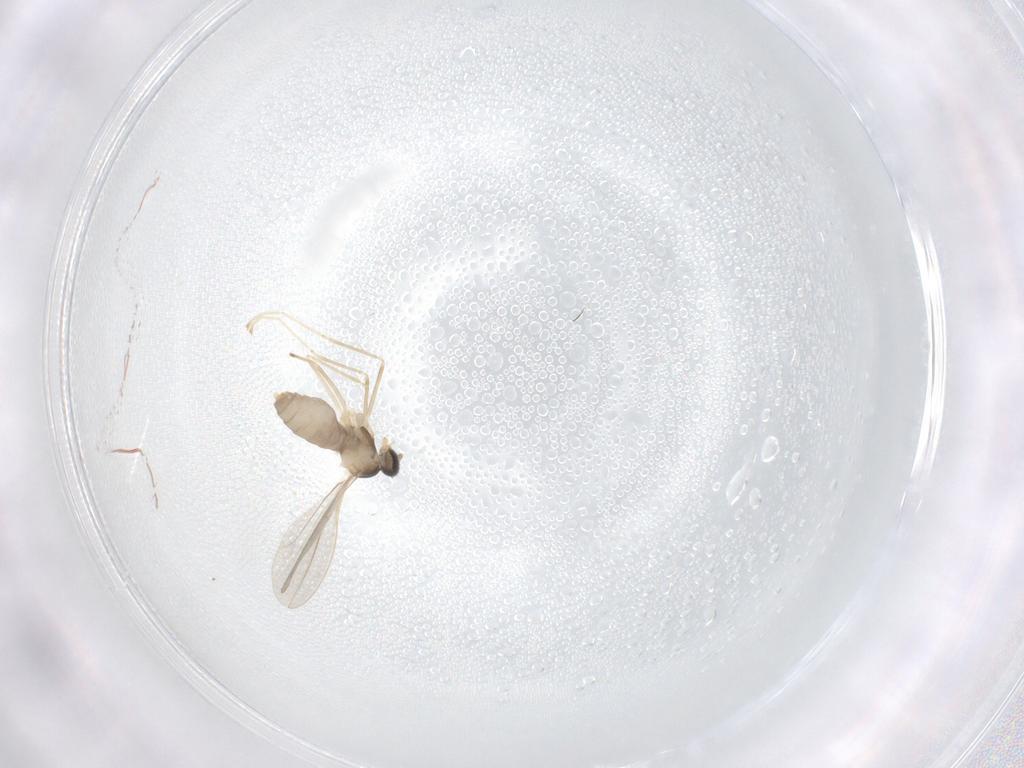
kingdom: Animalia
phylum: Arthropoda
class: Insecta
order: Diptera
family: Cecidomyiidae
